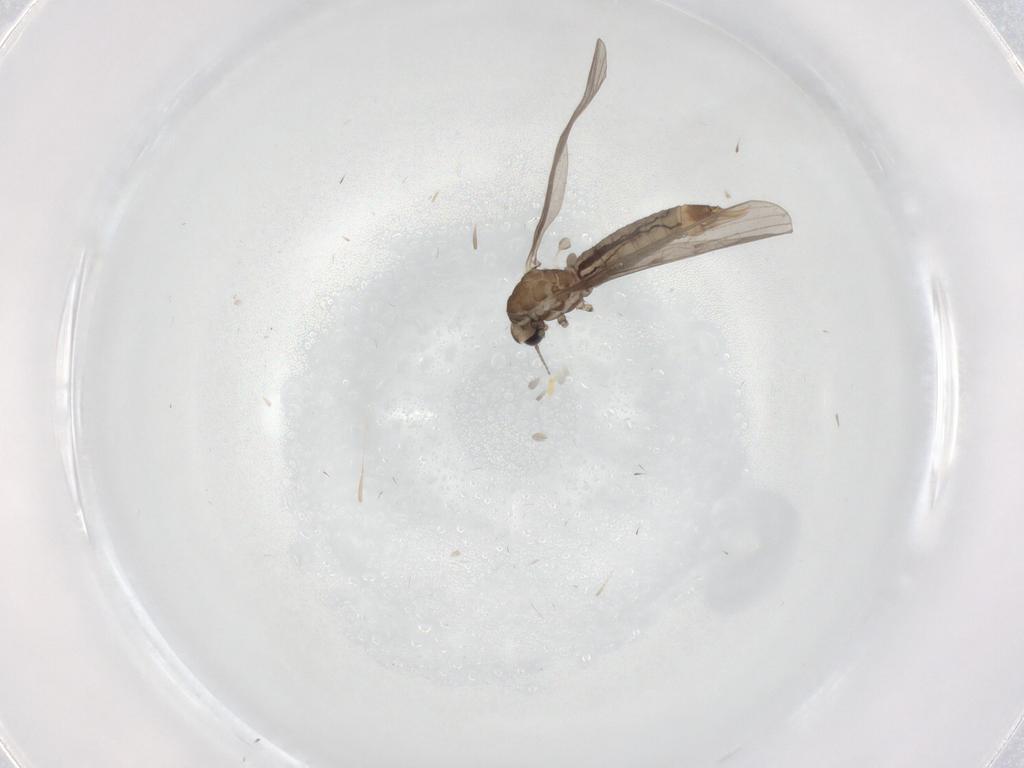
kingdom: Animalia
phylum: Arthropoda
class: Insecta
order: Diptera
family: Limoniidae
